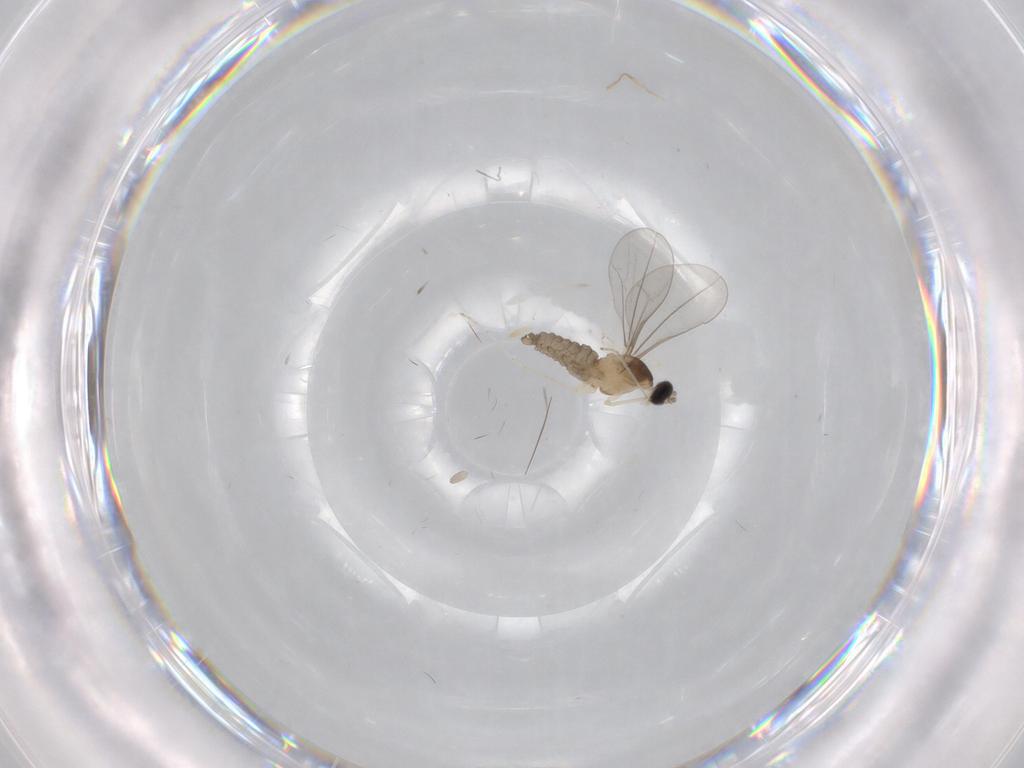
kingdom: Animalia
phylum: Arthropoda
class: Insecta
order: Diptera
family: Cecidomyiidae
